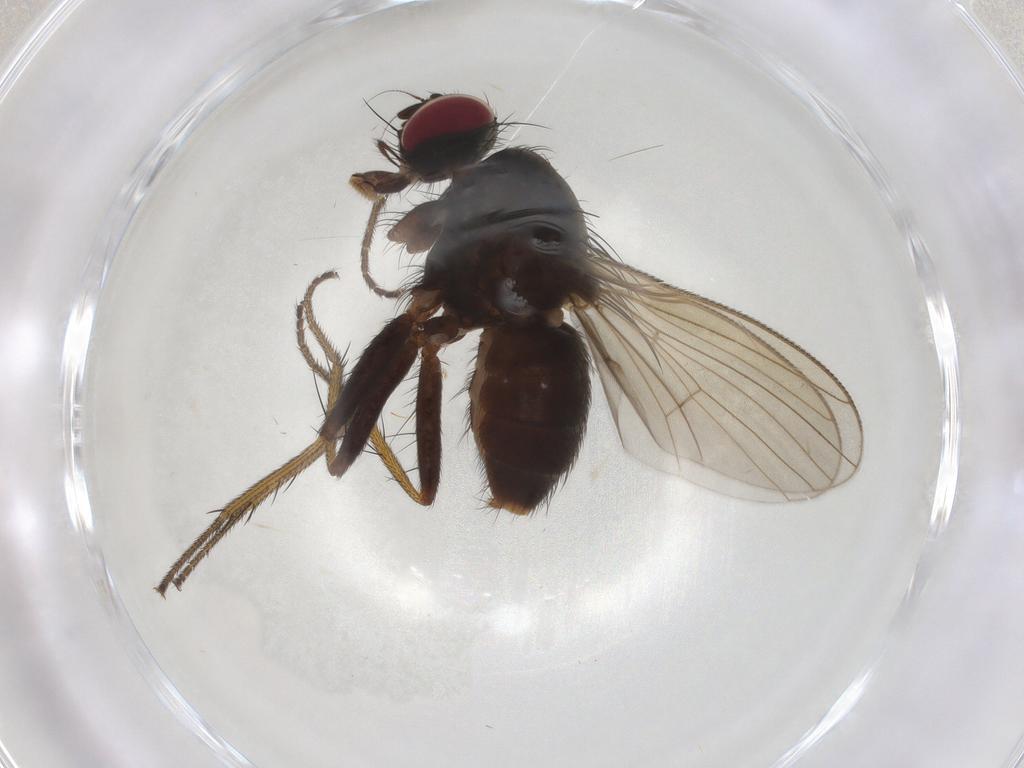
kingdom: Animalia
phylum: Arthropoda
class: Insecta
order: Diptera
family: Muscidae
